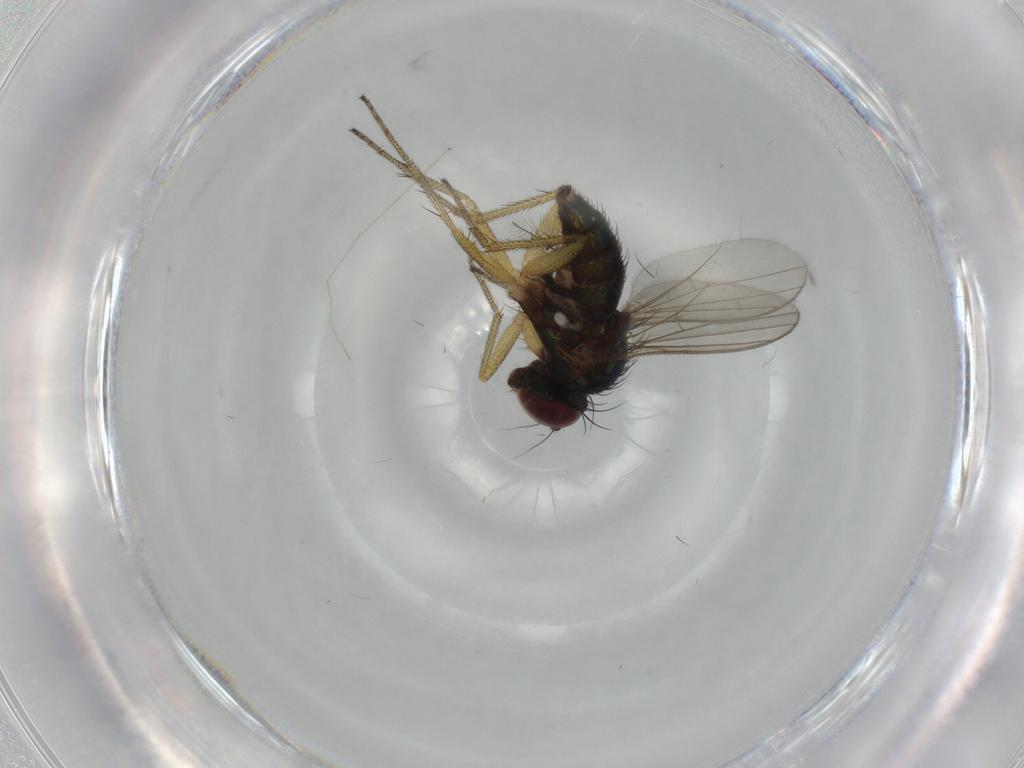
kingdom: Animalia
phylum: Arthropoda
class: Insecta
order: Diptera
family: Muscidae
